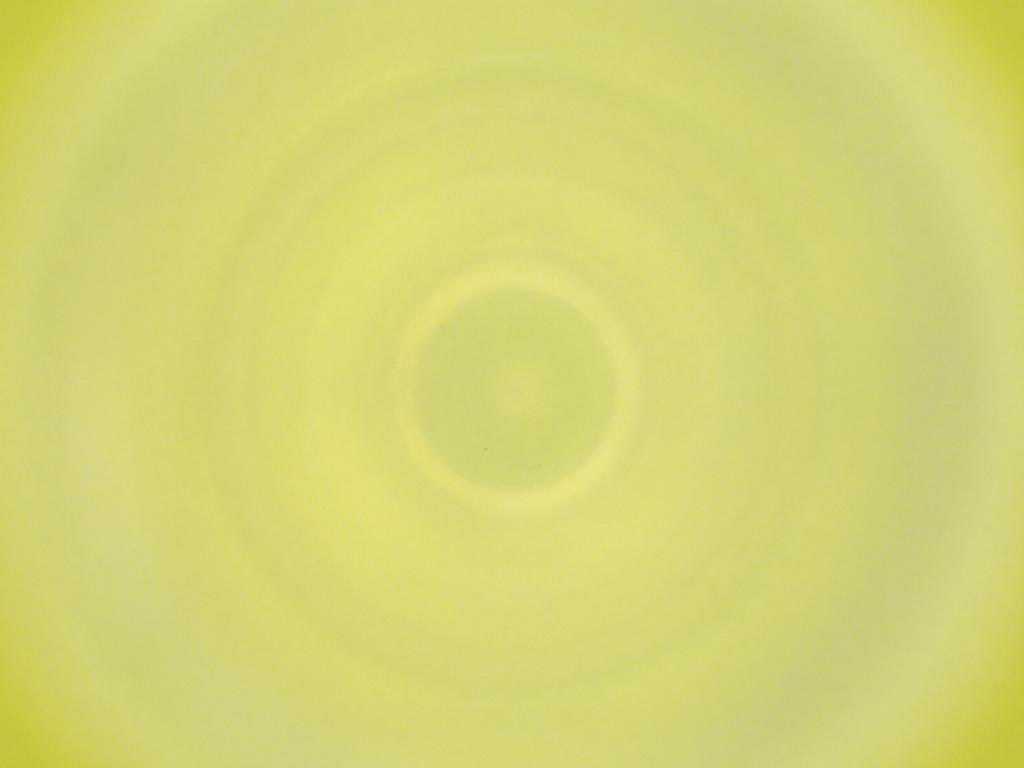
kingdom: Animalia
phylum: Arthropoda
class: Insecta
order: Diptera
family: Cecidomyiidae
